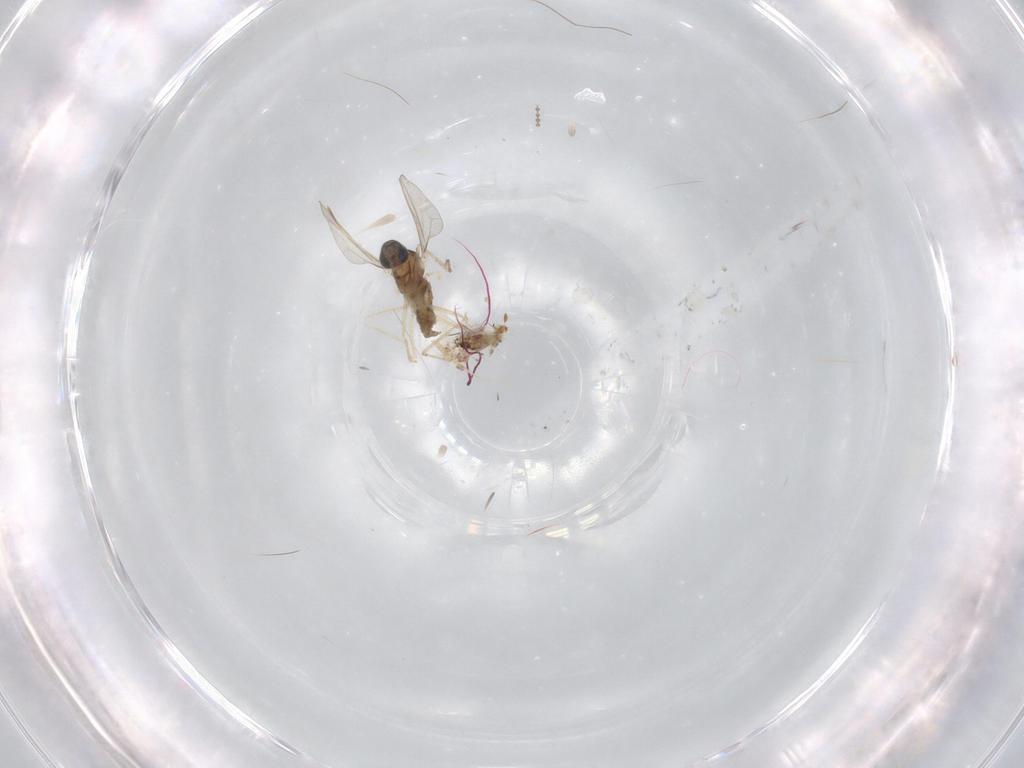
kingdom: Animalia
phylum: Arthropoda
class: Insecta
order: Diptera
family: Cecidomyiidae
